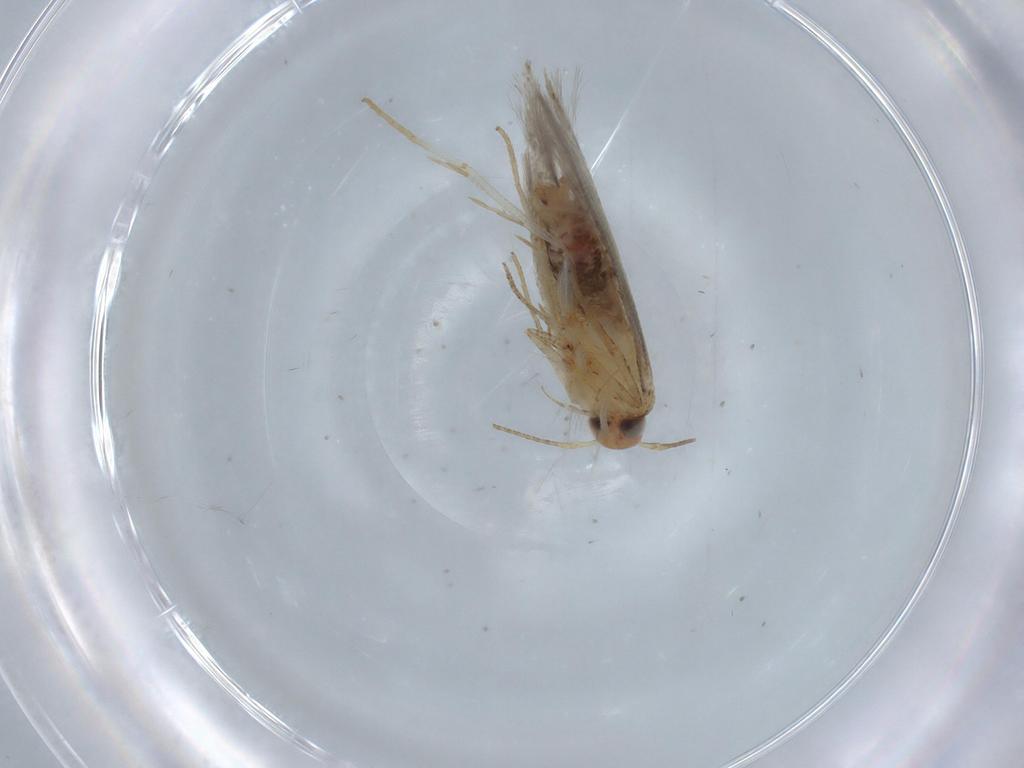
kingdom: Animalia
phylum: Arthropoda
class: Insecta
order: Lepidoptera
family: Cosmopterigidae
